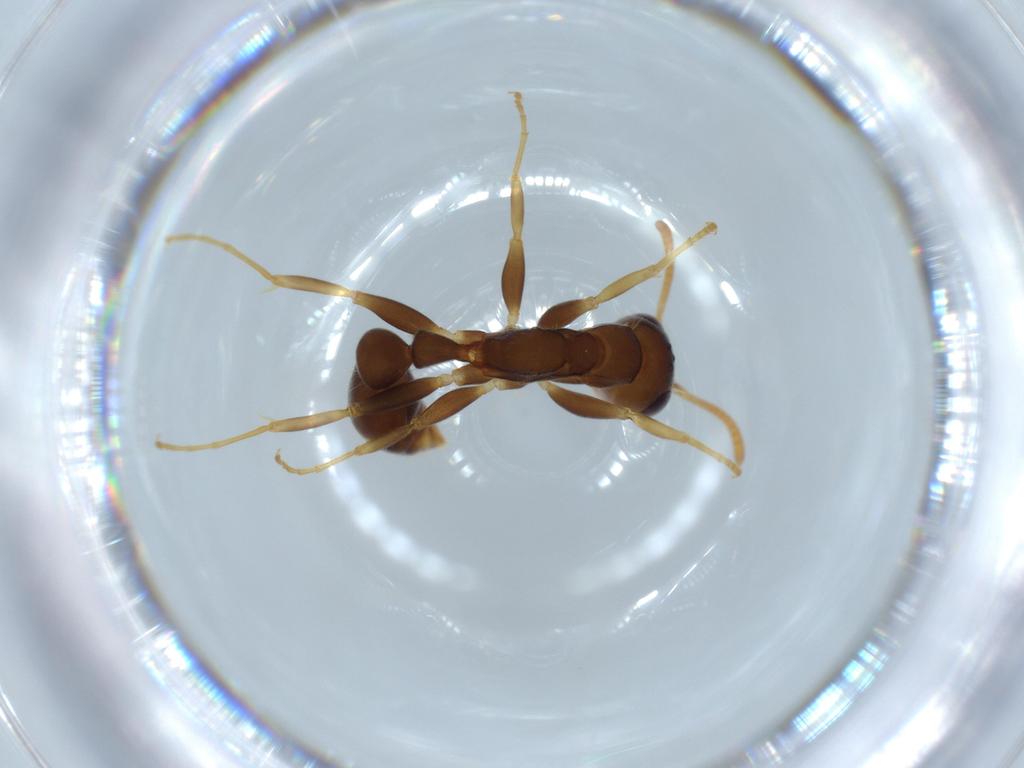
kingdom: Animalia
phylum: Arthropoda
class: Insecta
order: Hymenoptera
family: Formicidae
